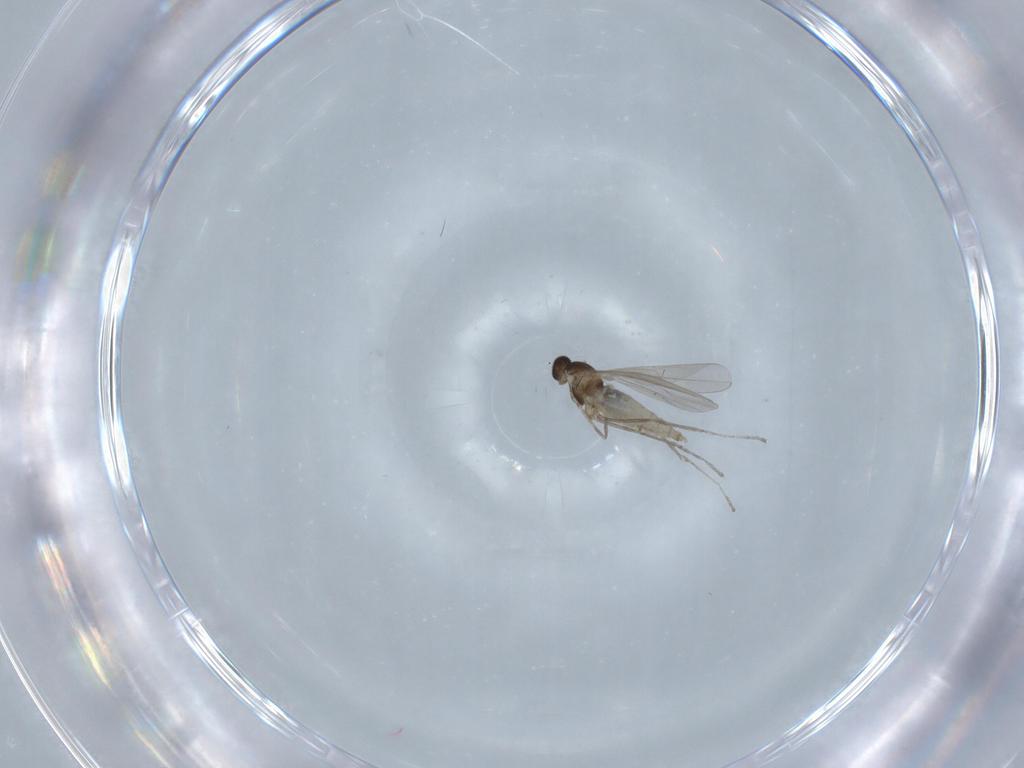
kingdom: Animalia
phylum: Arthropoda
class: Insecta
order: Diptera
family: Cecidomyiidae
